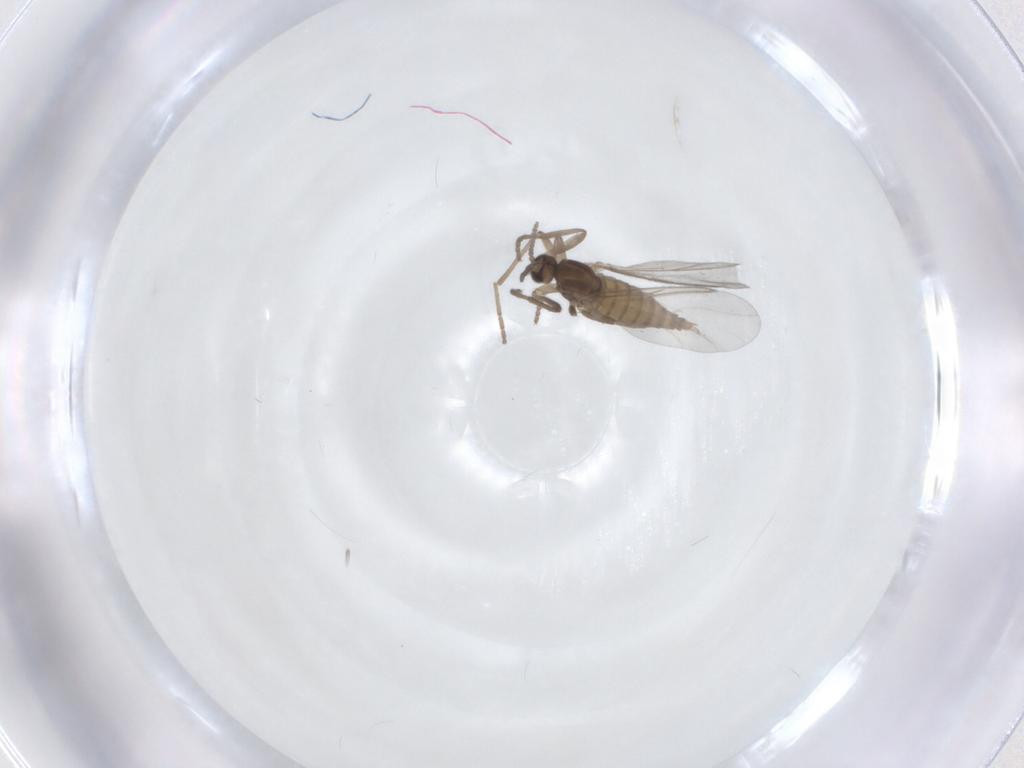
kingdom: Animalia
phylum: Arthropoda
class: Insecta
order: Diptera
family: Cecidomyiidae
